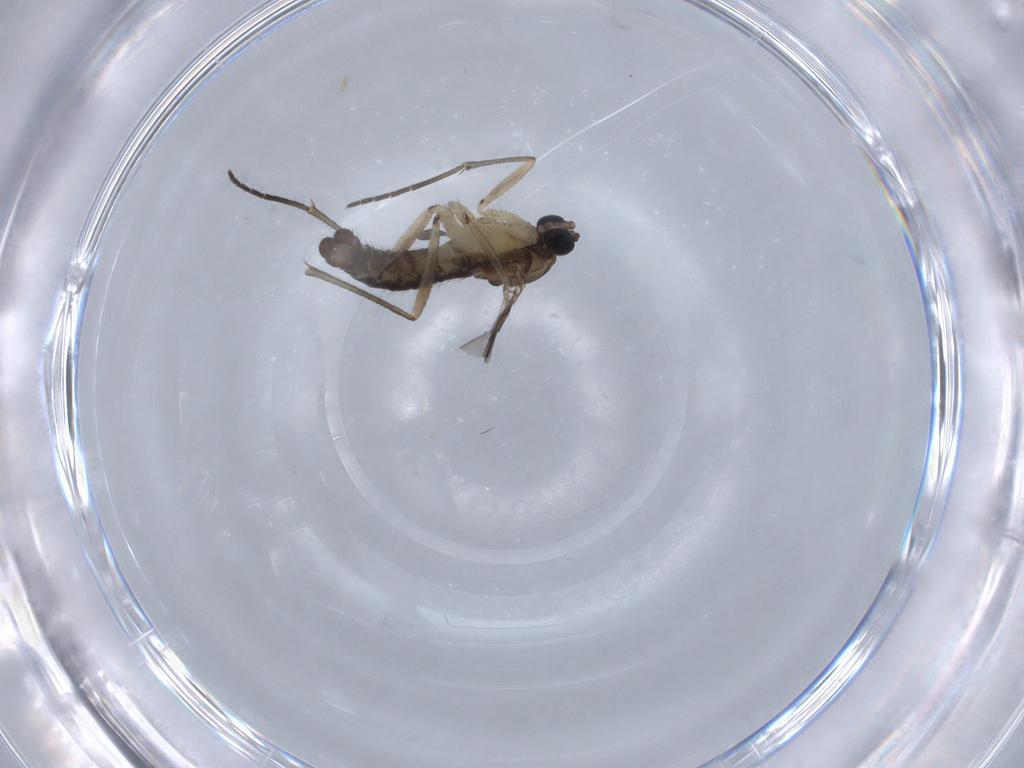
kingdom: Animalia
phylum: Arthropoda
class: Insecta
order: Diptera
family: Sciaridae
